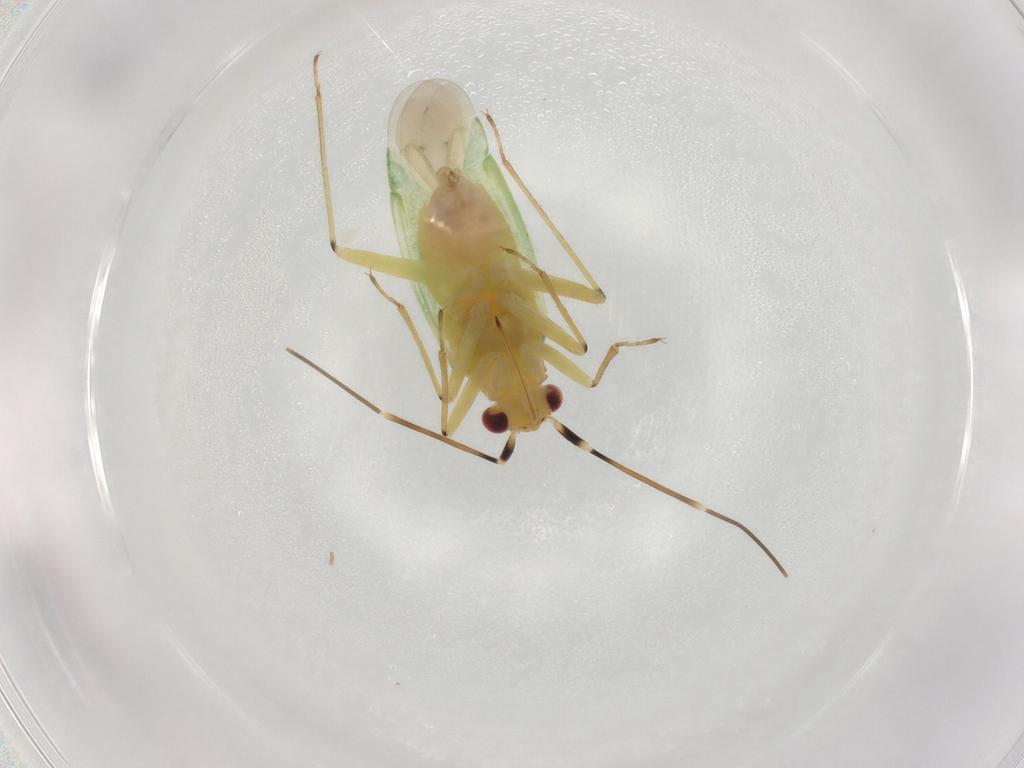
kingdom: Animalia
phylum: Arthropoda
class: Insecta
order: Hemiptera
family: Miridae
